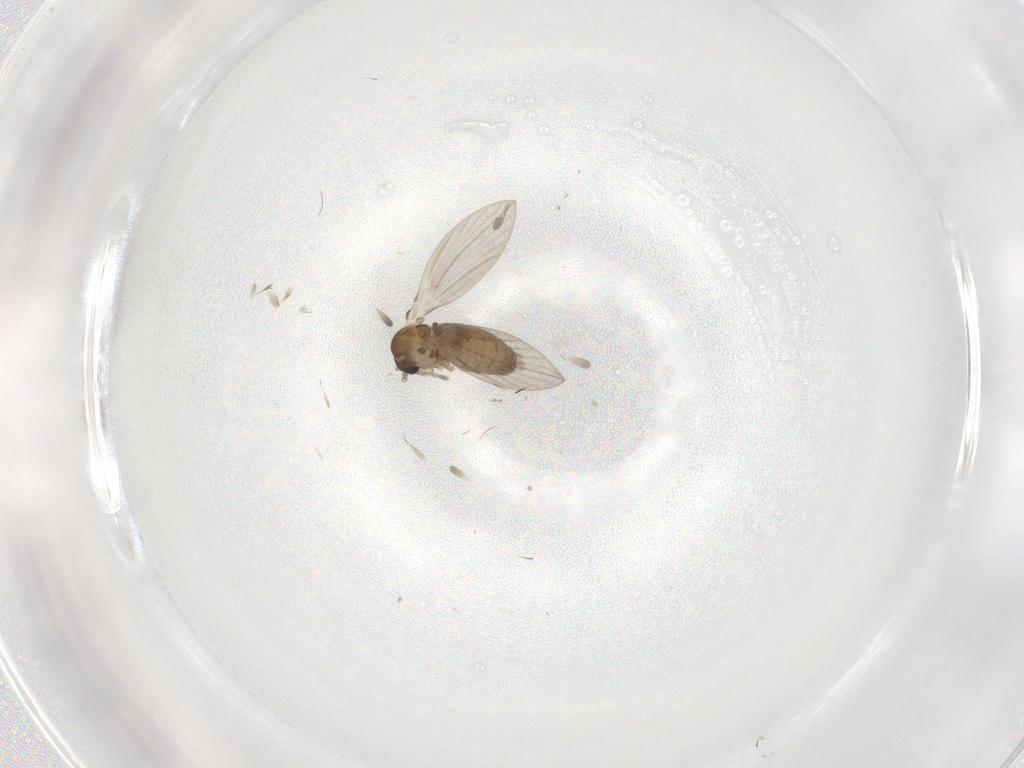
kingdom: Animalia
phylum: Arthropoda
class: Insecta
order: Diptera
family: Psychodidae
